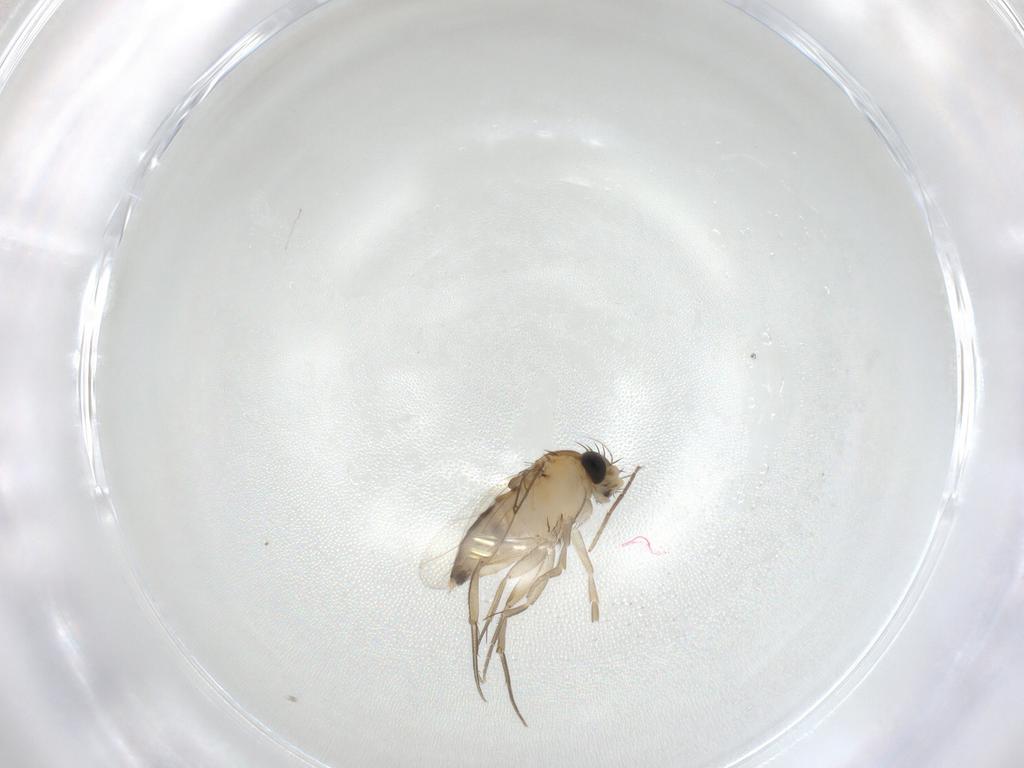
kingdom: Animalia
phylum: Arthropoda
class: Insecta
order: Diptera
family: Phoridae
